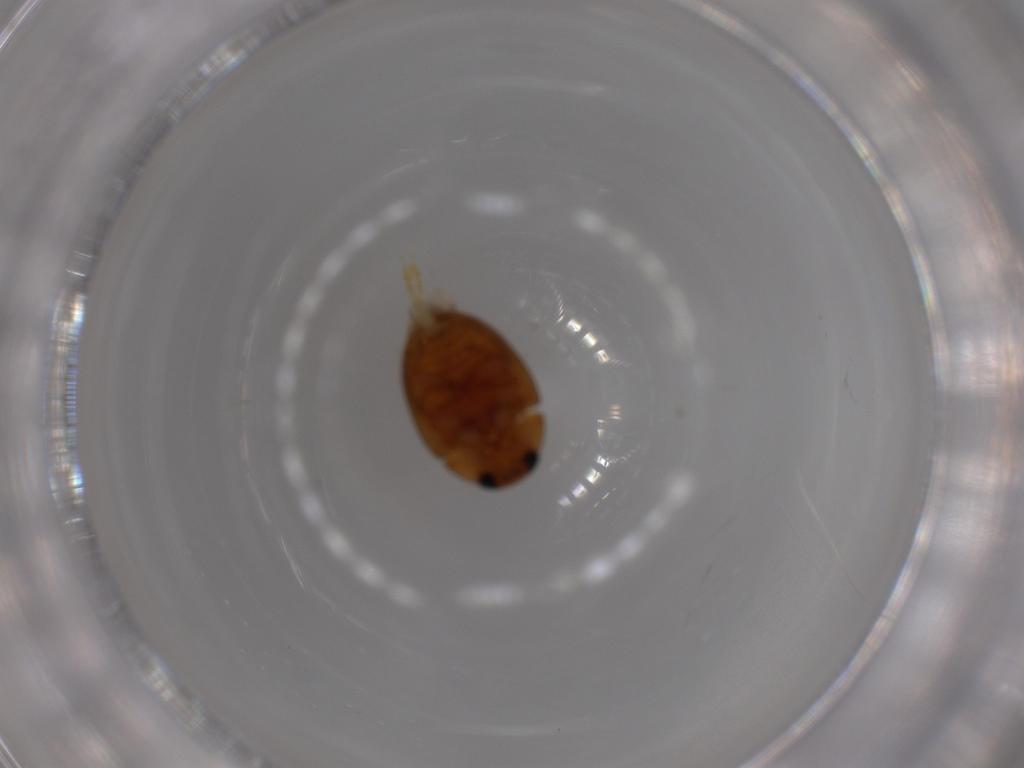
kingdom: Animalia
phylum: Arthropoda
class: Insecta
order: Coleoptera
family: Phalacridae
